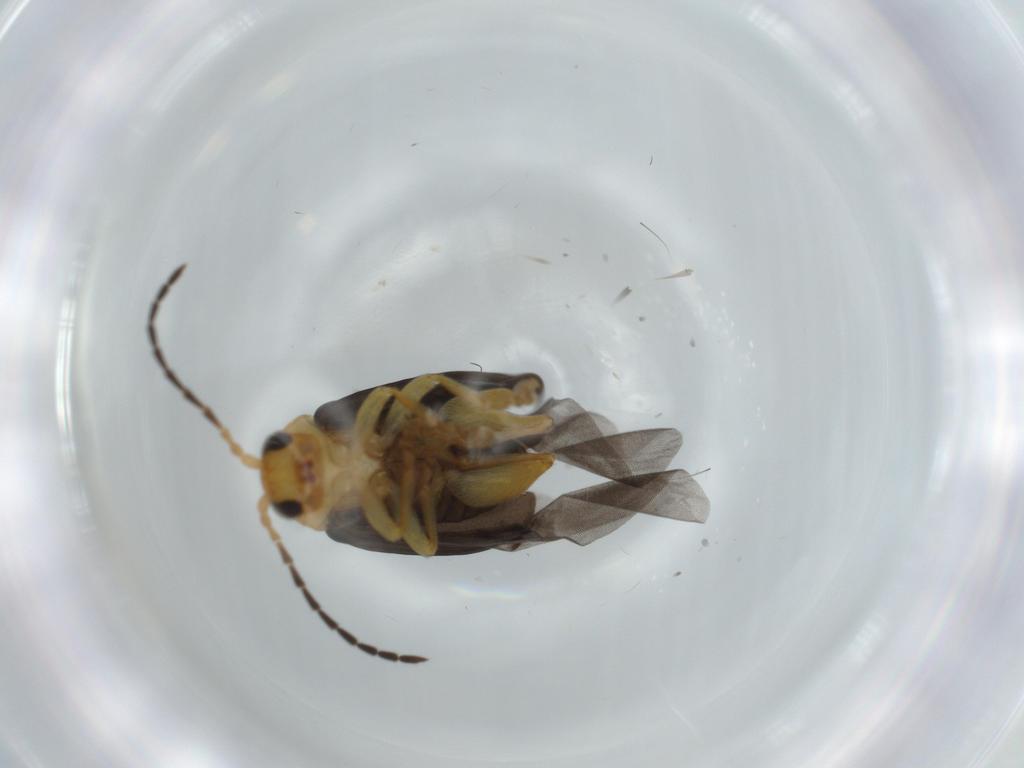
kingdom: Animalia
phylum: Arthropoda
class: Insecta
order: Coleoptera
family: Chrysomelidae
